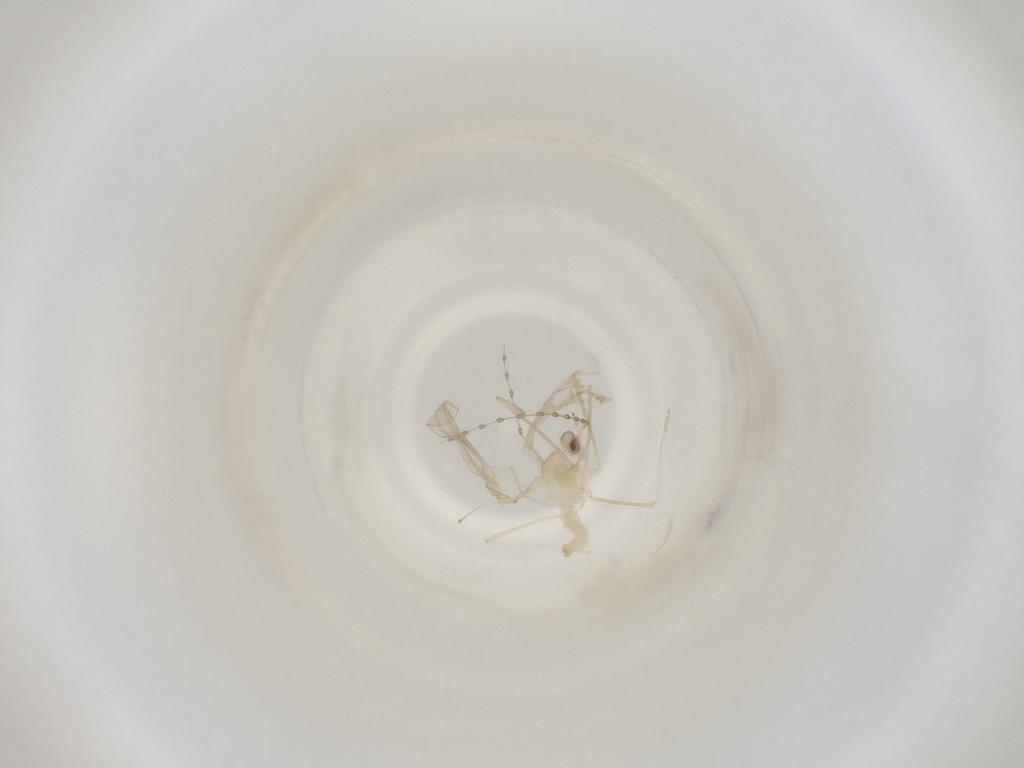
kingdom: Animalia
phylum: Arthropoda
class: Insecta
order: Diptera
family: Cecidomyiidae
